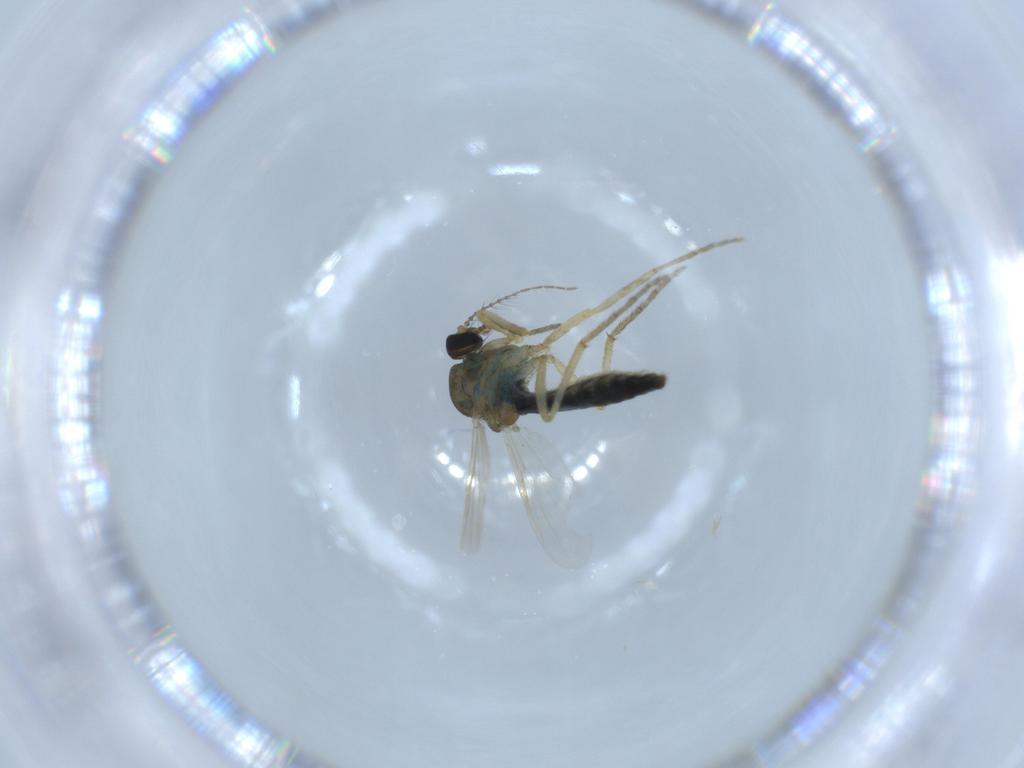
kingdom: Animalia
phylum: Arthropoda
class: Insecta
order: Diptera
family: Ceratopogonidae
